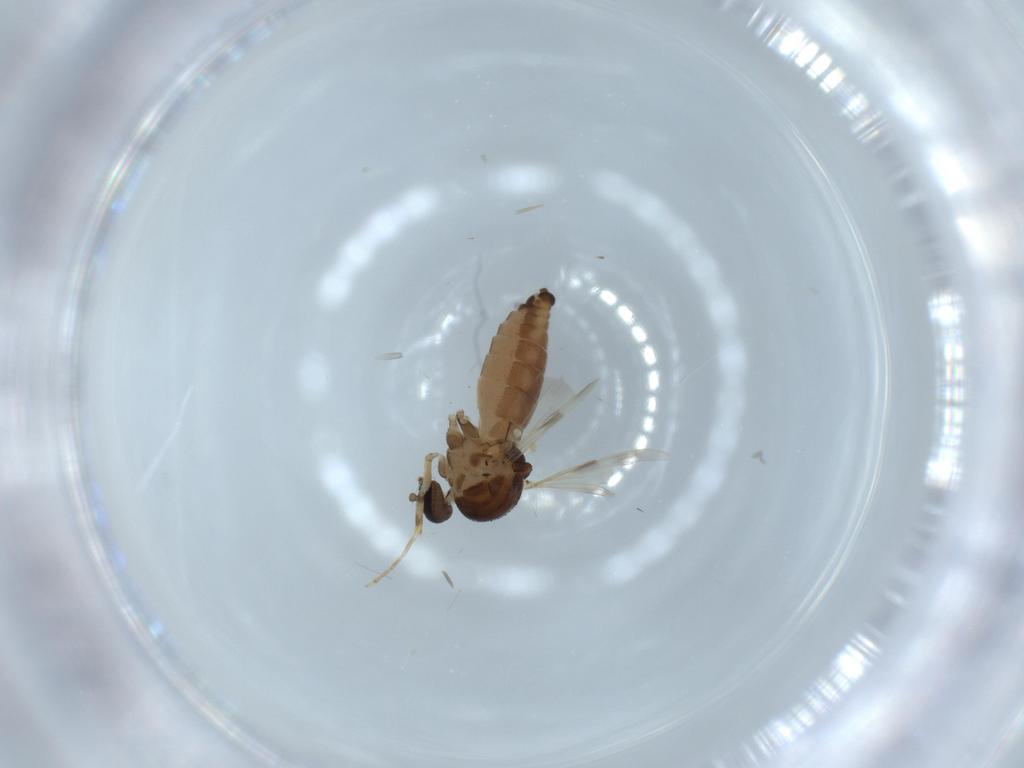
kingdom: Animalia
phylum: Arthropoda
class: Insecta
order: Diptera
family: Ceratopogonidae
